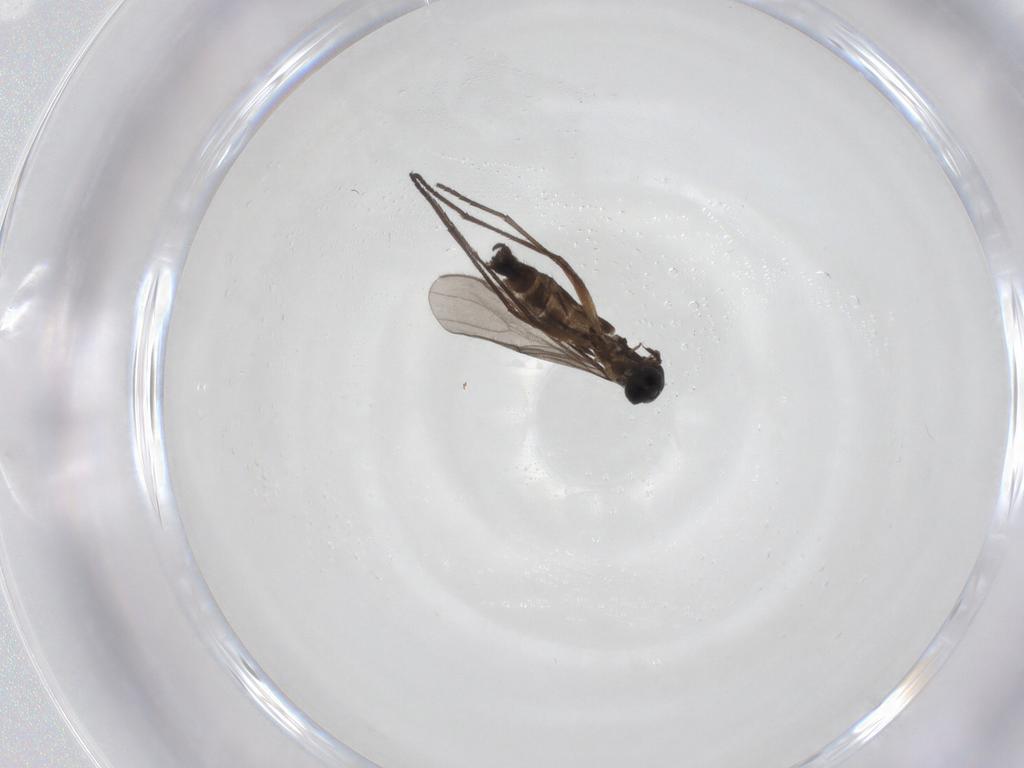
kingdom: Animalia
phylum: Arthropoda
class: Insecta
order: Diptera
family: Sciaridae
